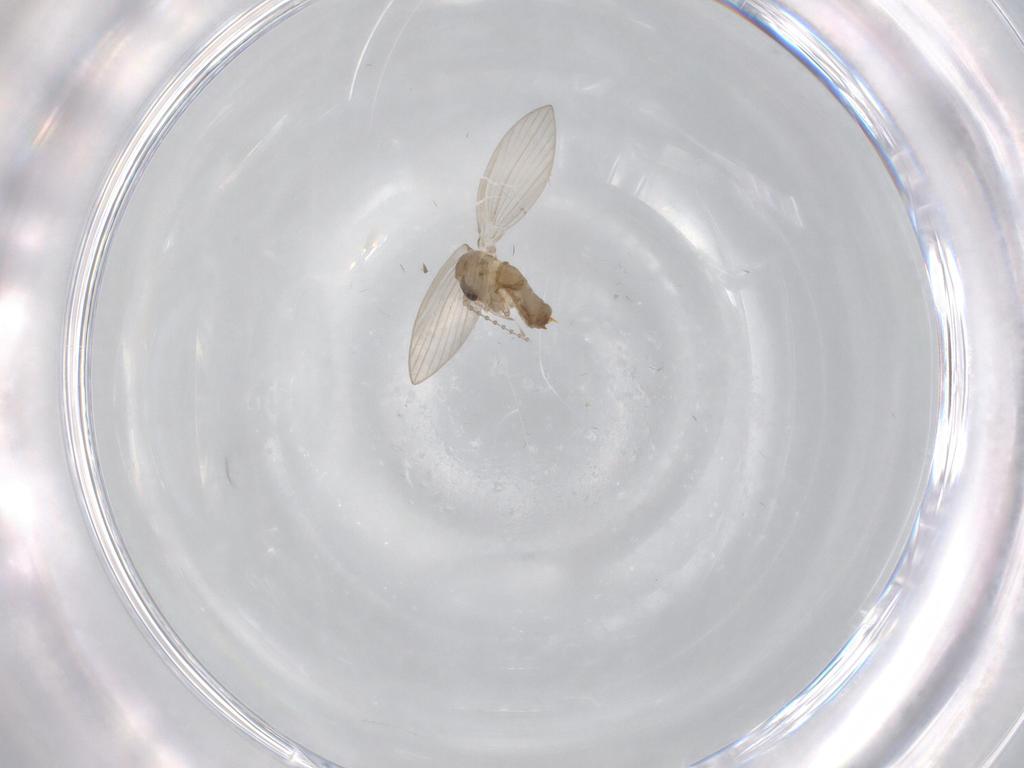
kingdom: Animalia
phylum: Arthropoda
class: Insecta
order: Diptera
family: Psychodidae
